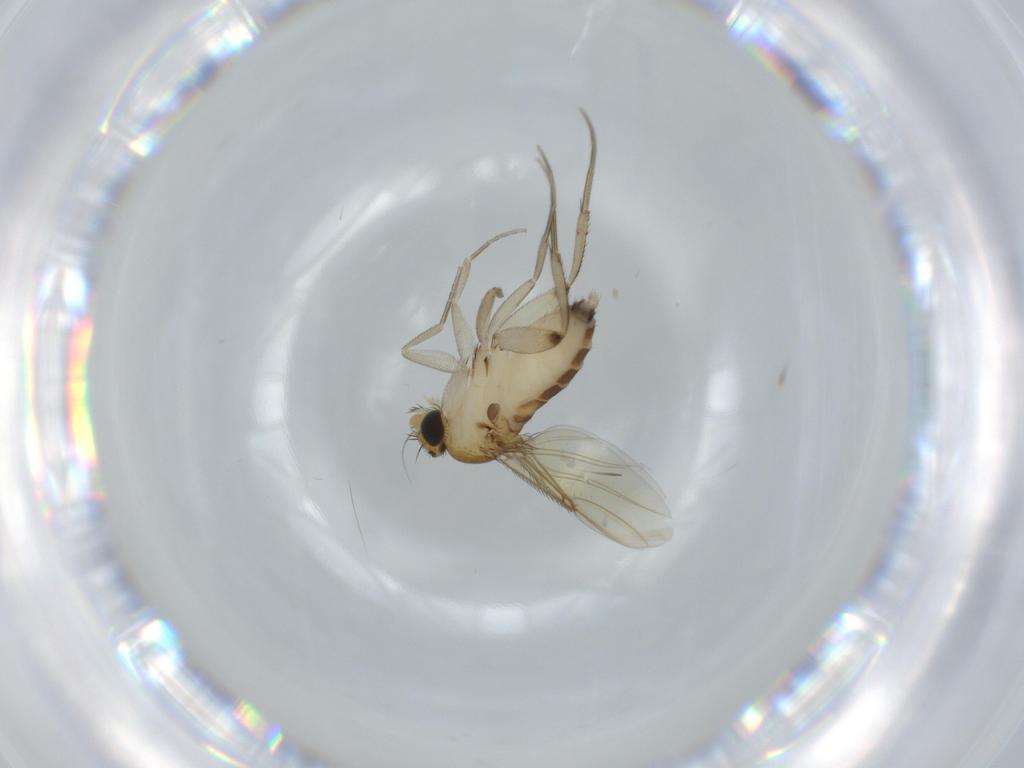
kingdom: Animalia
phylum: Arthropoda
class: Insecta
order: Diptera
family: Phoridae
